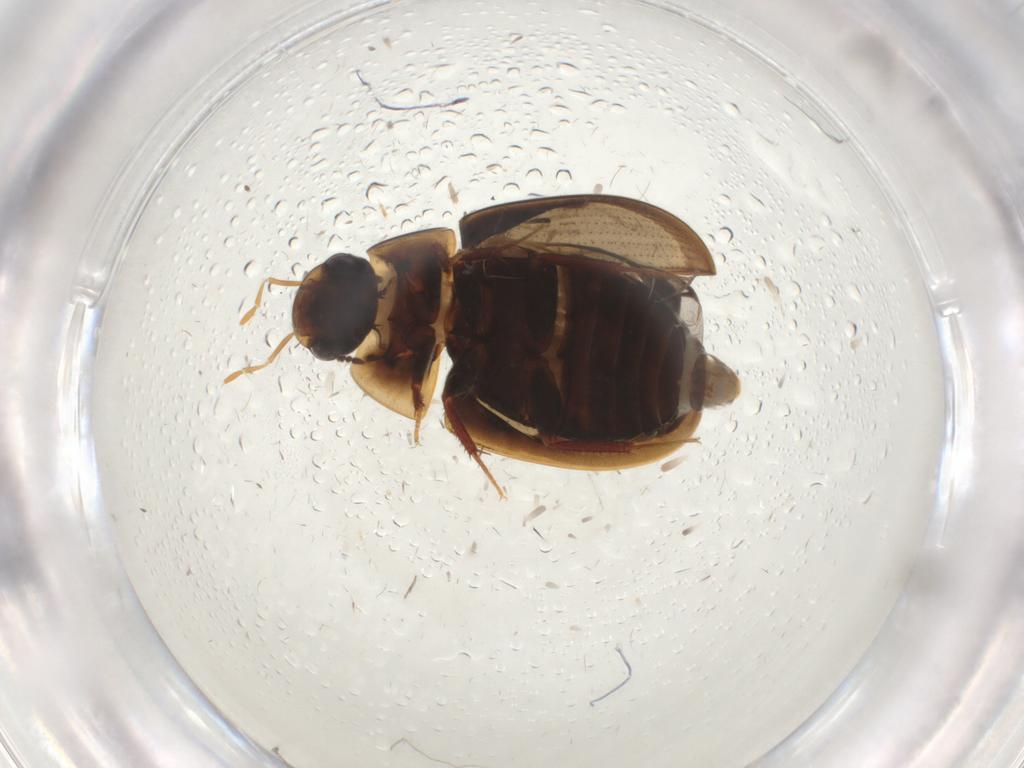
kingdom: Animalia
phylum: Arthropoda
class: Insecta
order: Coleoptera
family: Hydrophilidae
